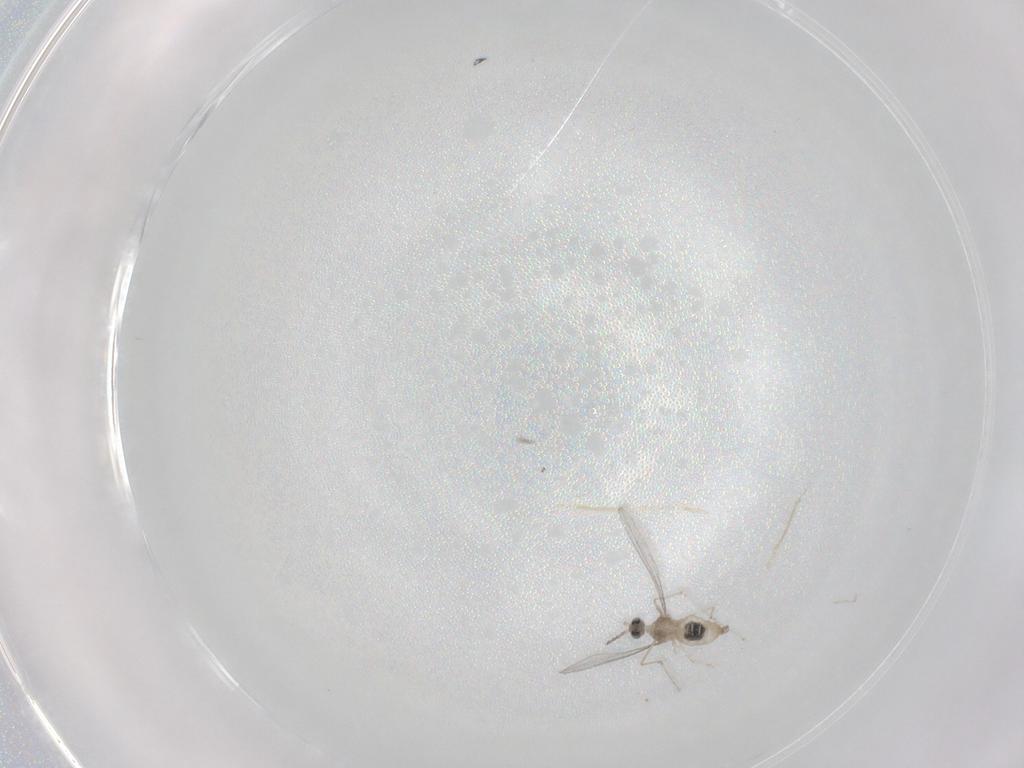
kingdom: Animalia
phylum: Arthropoda
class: Insecta
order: Diptera
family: Cecidomyiidae
